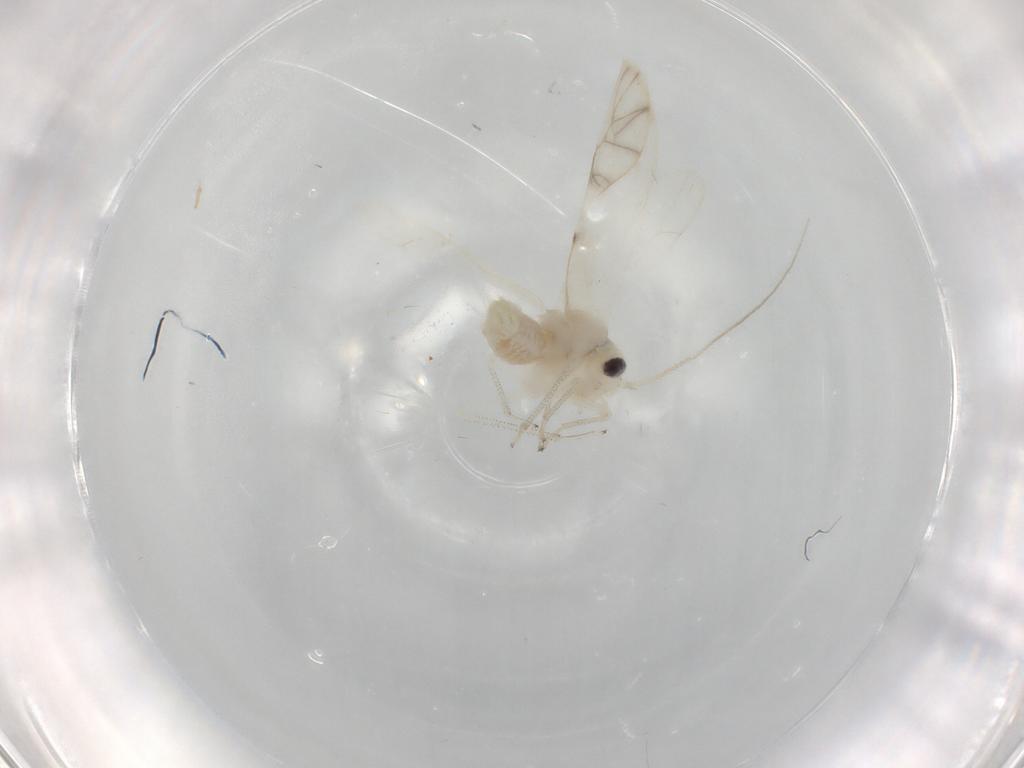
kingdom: Animalia
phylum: Arthropoda
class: Insecta
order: Psocodea
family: Caeciliusidae
